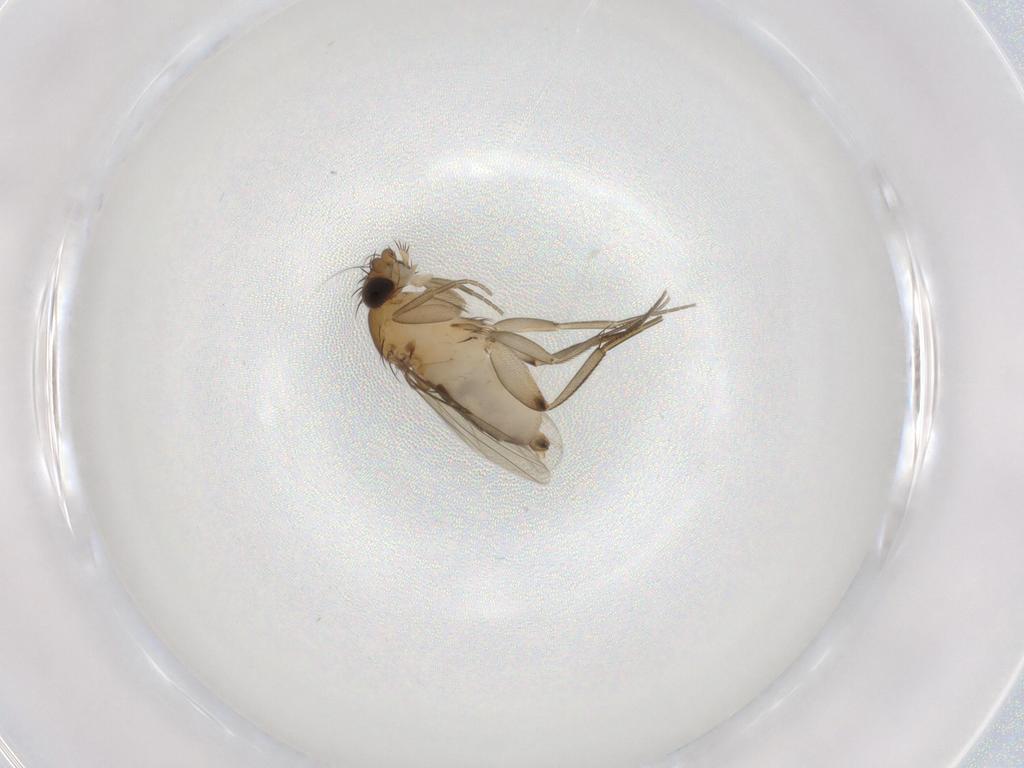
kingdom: Animalia
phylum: Arthropoda
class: Insecta
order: Diptera
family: Phoridae
